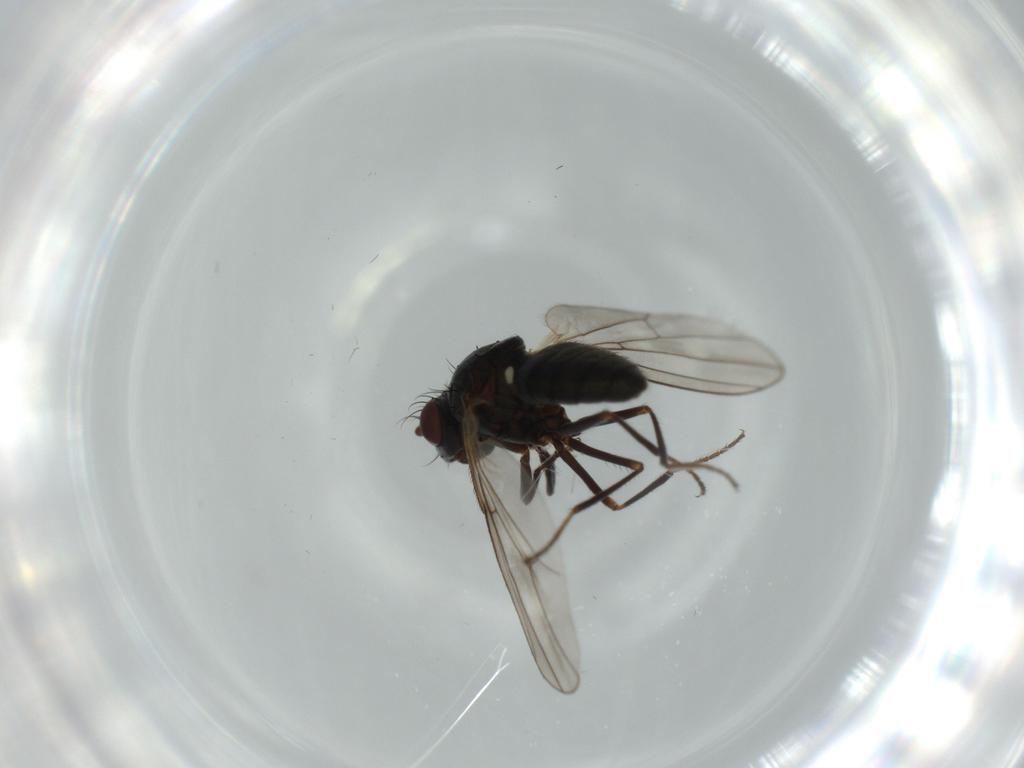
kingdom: Animalia
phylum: Arthropoda
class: Insecta
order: Diptera
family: Ephydridae
